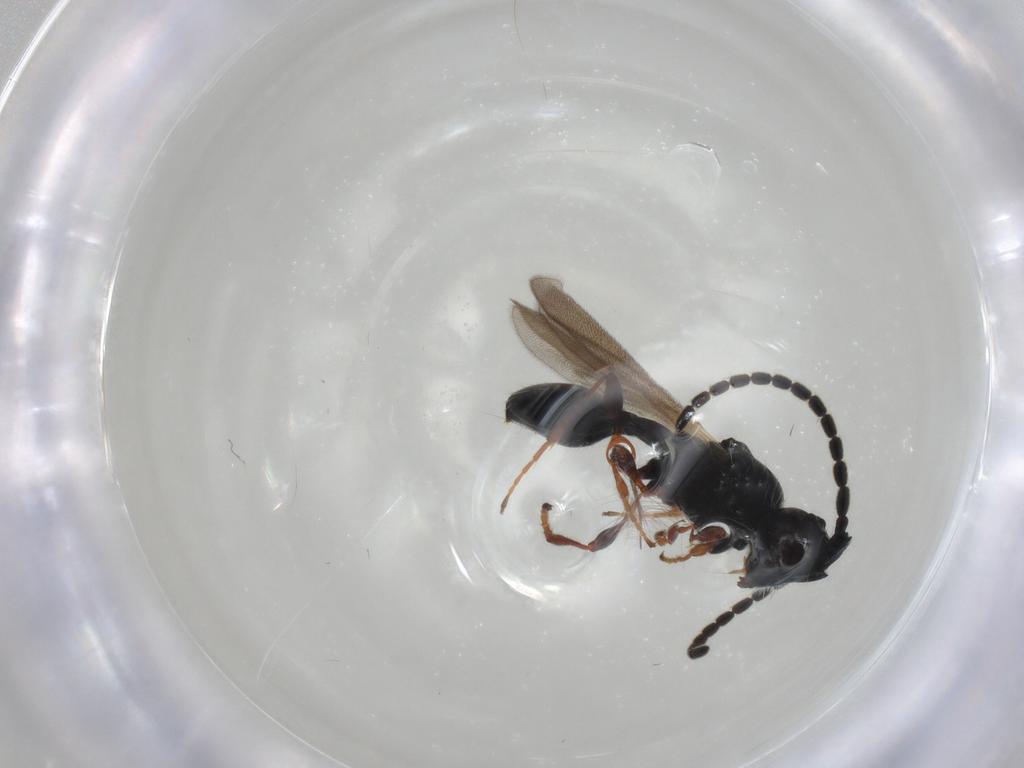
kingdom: Animalia
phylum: Arthropoda
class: Insecta
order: Hymenoptera
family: Diapriidae
